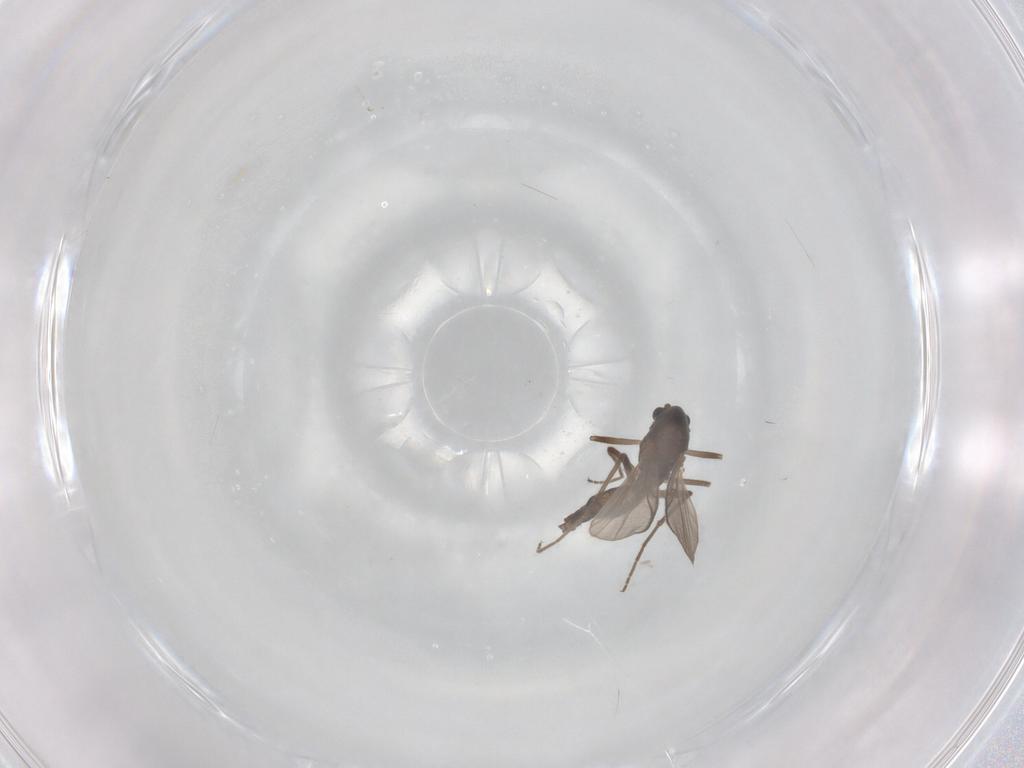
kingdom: Animalia
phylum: Arthropoda
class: Insecta
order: Diptera
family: Chironomidae
